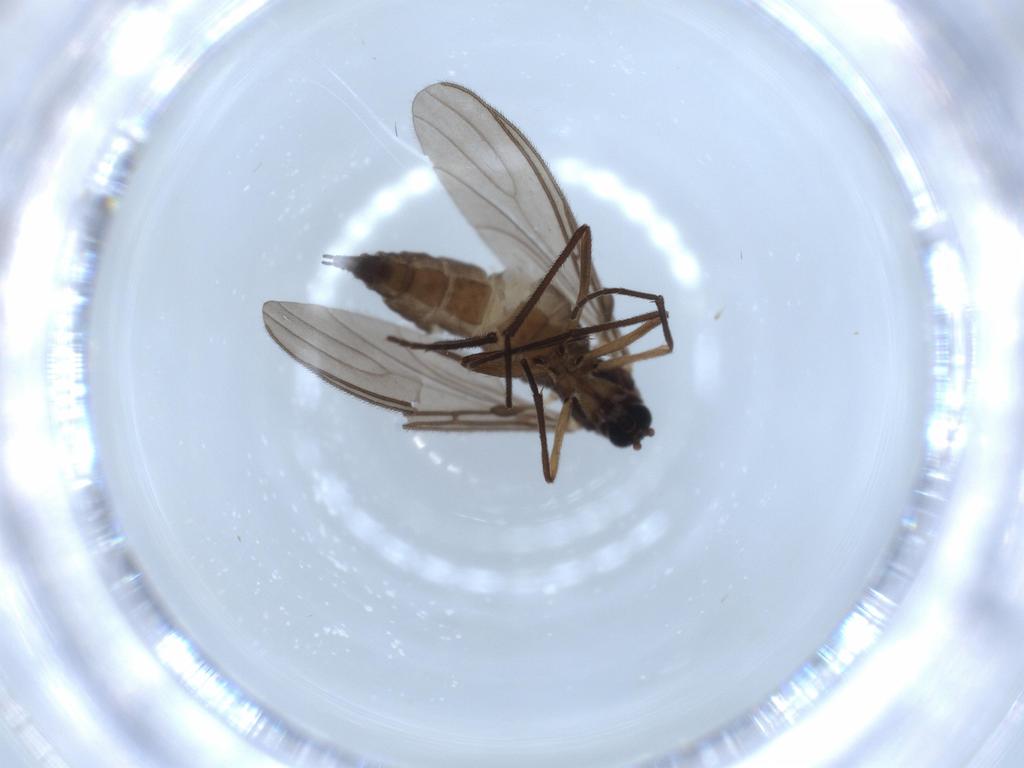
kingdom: Animalia
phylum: Arthropoda
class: Insecta
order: Diptera
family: Sciaridae
